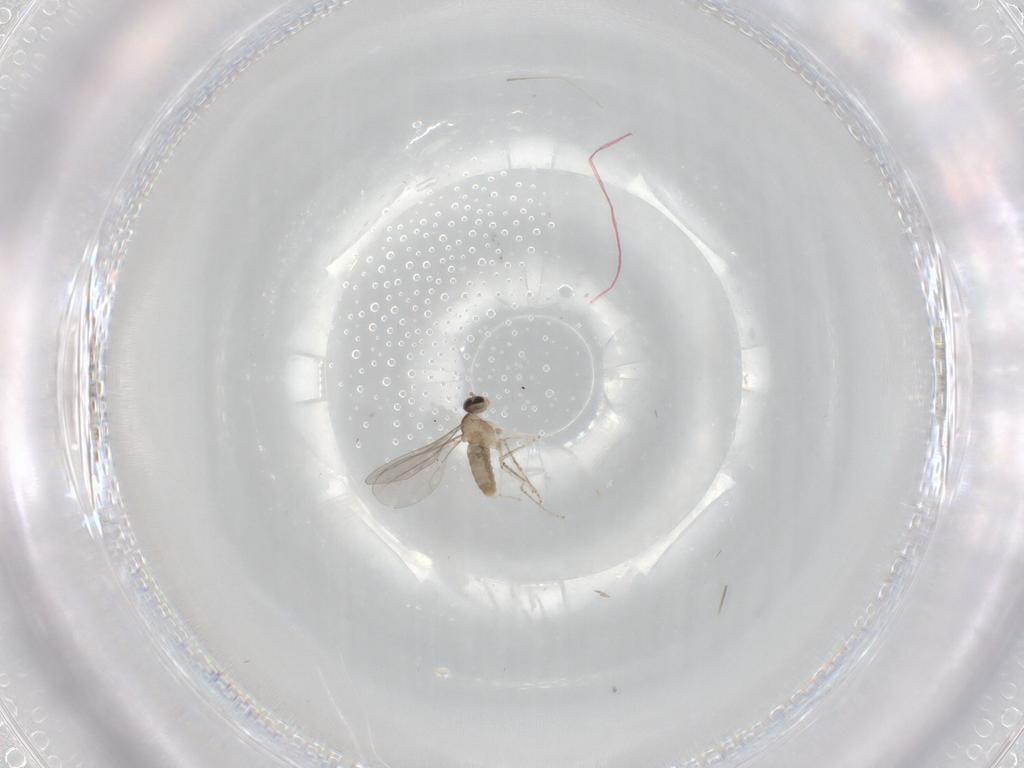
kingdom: Animalia
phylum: Arthropoda
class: Insecta
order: Diptera
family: Cecidomyiidae
